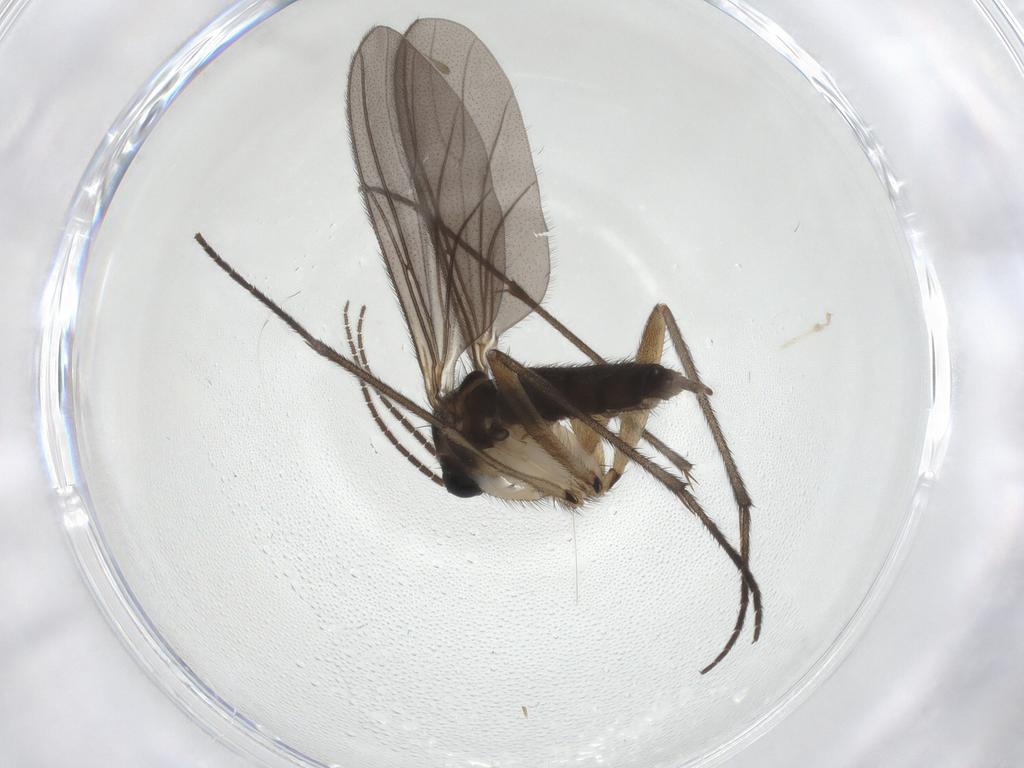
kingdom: Animalia
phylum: Arthropoda
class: Insecta
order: Diptera
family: Sciaridae
